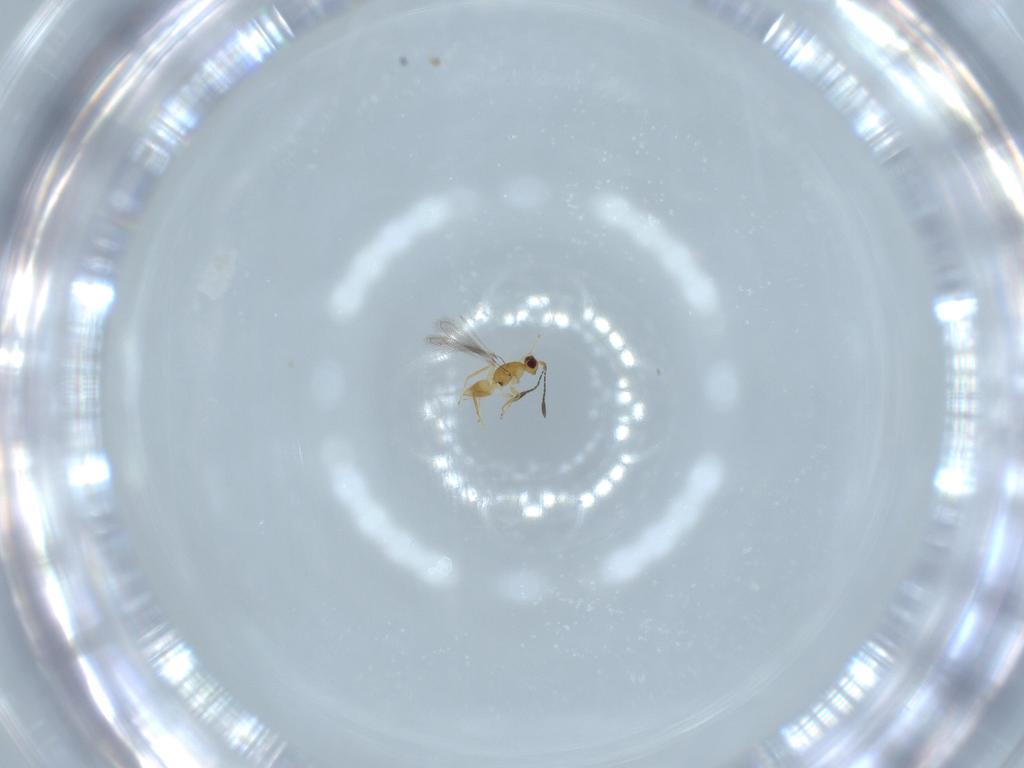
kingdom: Animalia
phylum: Arthropoda
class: Insecta
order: Hymenoptera
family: Mymaridae
